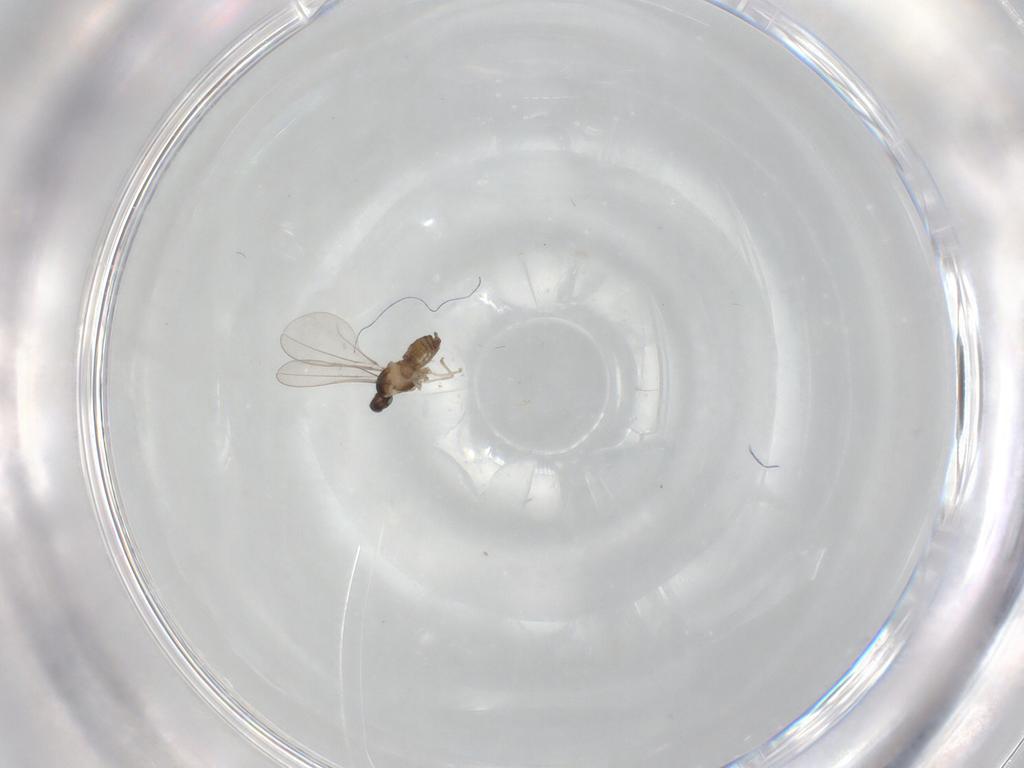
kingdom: Animalia
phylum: Arthropoda
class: Insecta
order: Diptera
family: Cecidomyiidae
